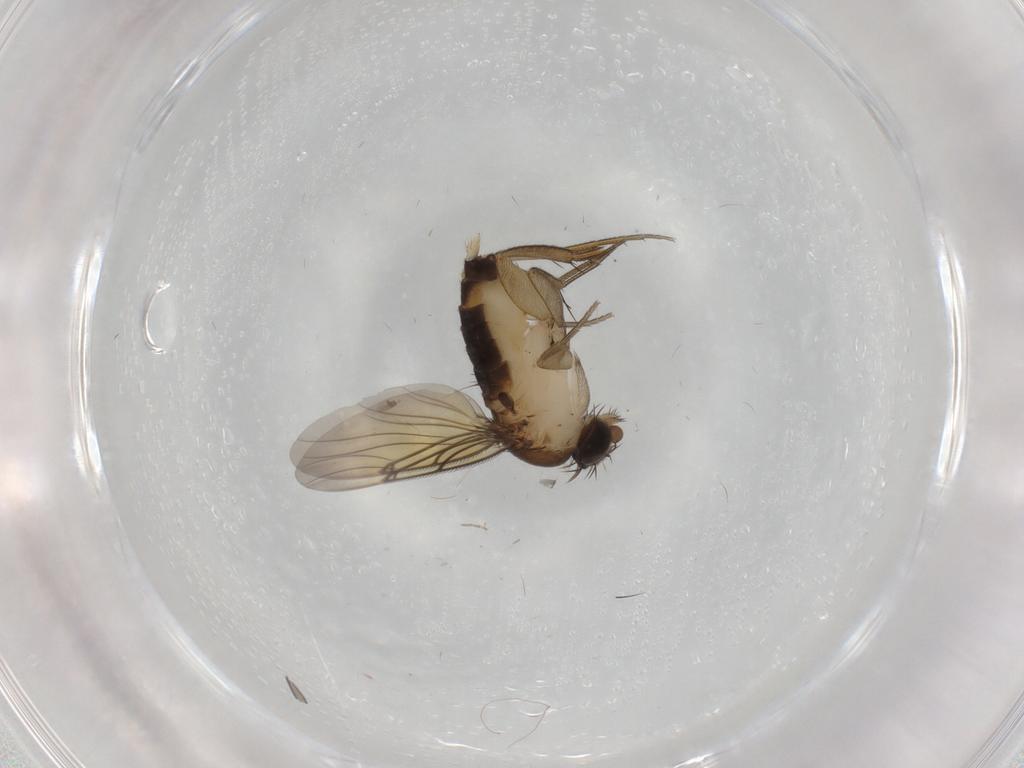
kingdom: Animalia
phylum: Arthropoda
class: Insecta
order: Diptera
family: Chironomidae
